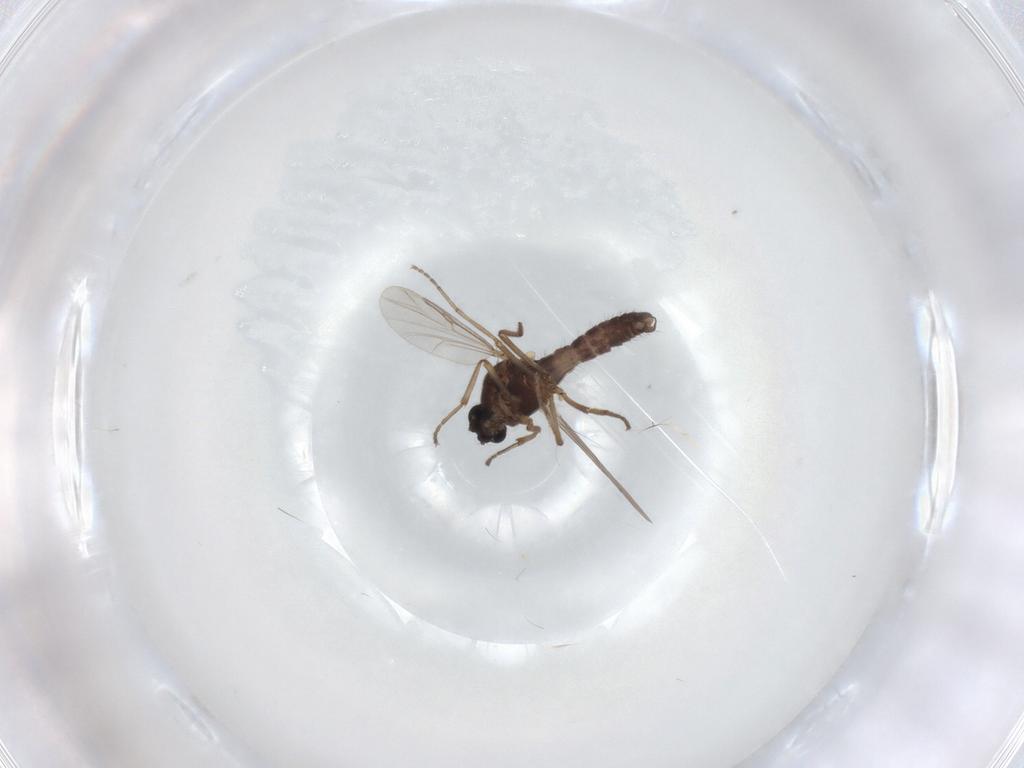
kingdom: Animalia
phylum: Arthropoda
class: Insecta
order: Diptera
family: Ceratopogonidae
